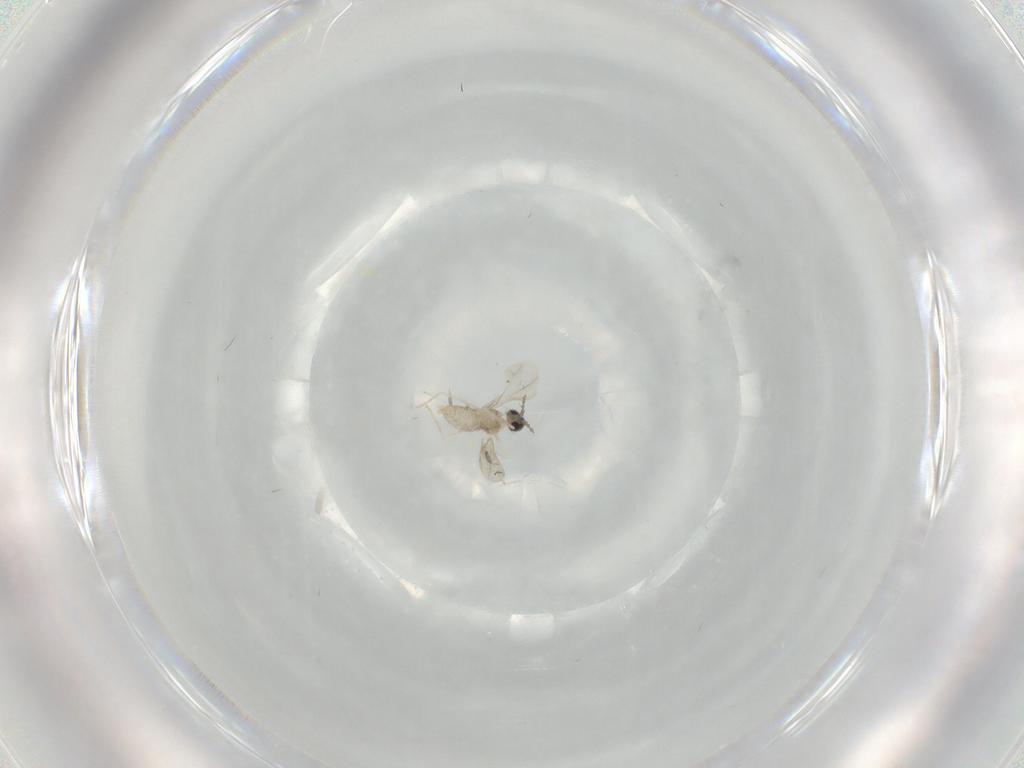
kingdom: Animalia
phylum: Arthropoda
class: Insecta
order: Diptera
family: Cecidomyiidae
